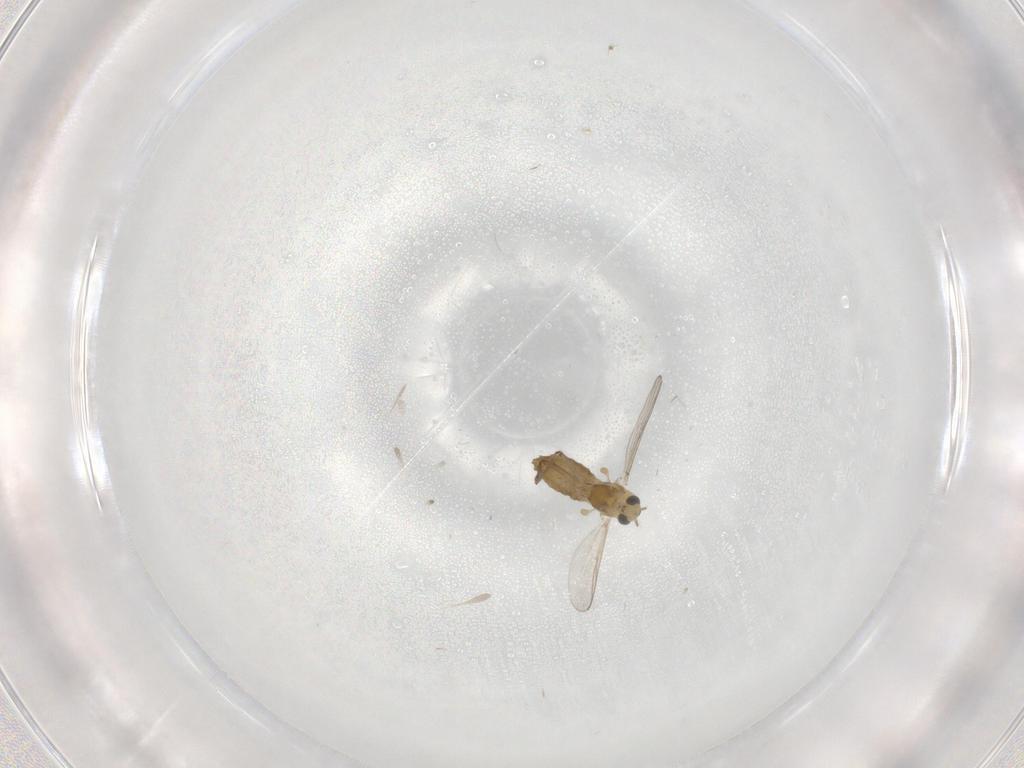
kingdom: Animalia
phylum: Arthropoda
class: Insecta
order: Diptera
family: Chironomidae
